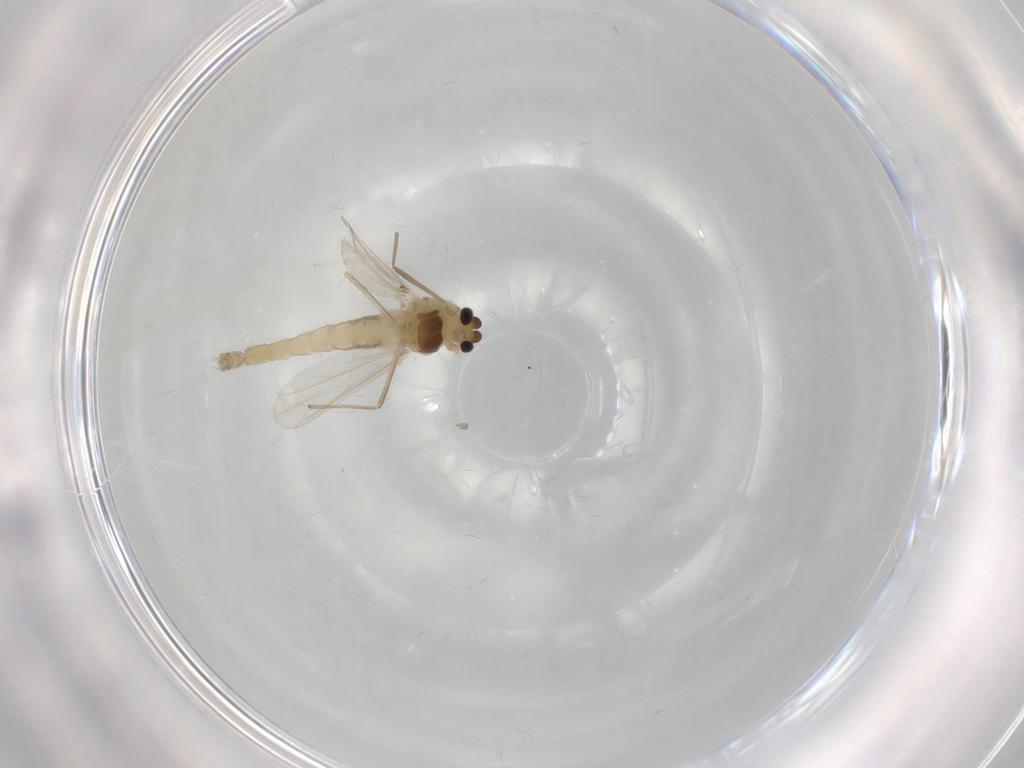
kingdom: Animalia
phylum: Arthropoda
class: Insecta
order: Diptera
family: Chironomidae
